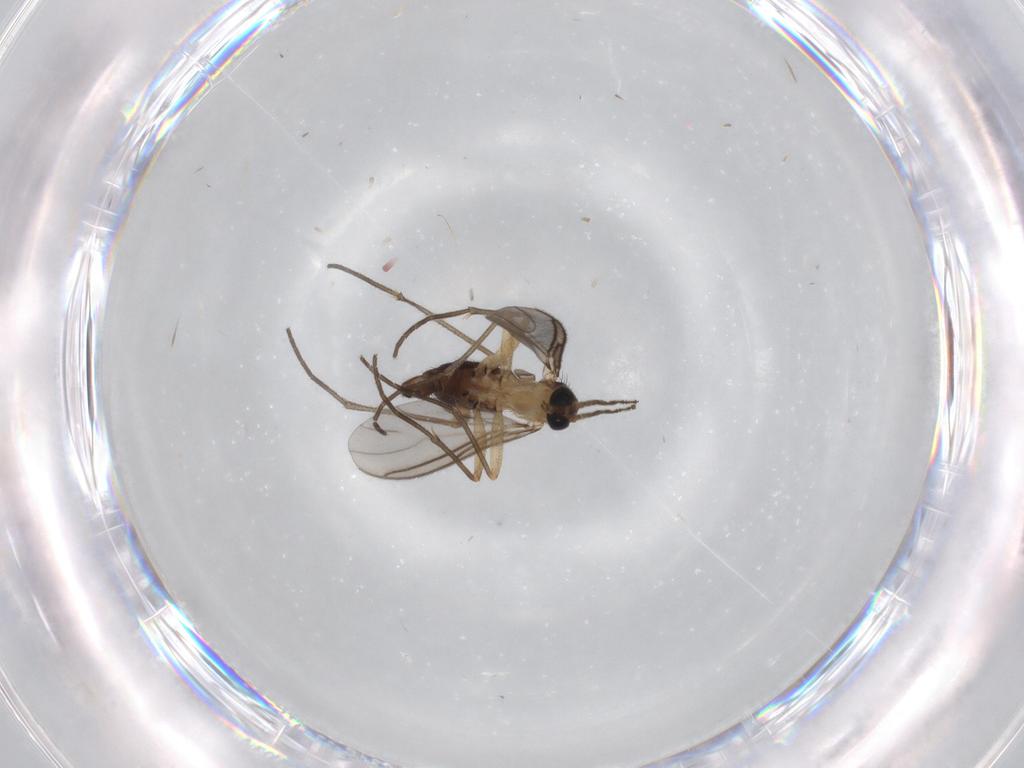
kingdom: Animalia
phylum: Arthropoda
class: Insecta
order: Diptera
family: Sciaridae
